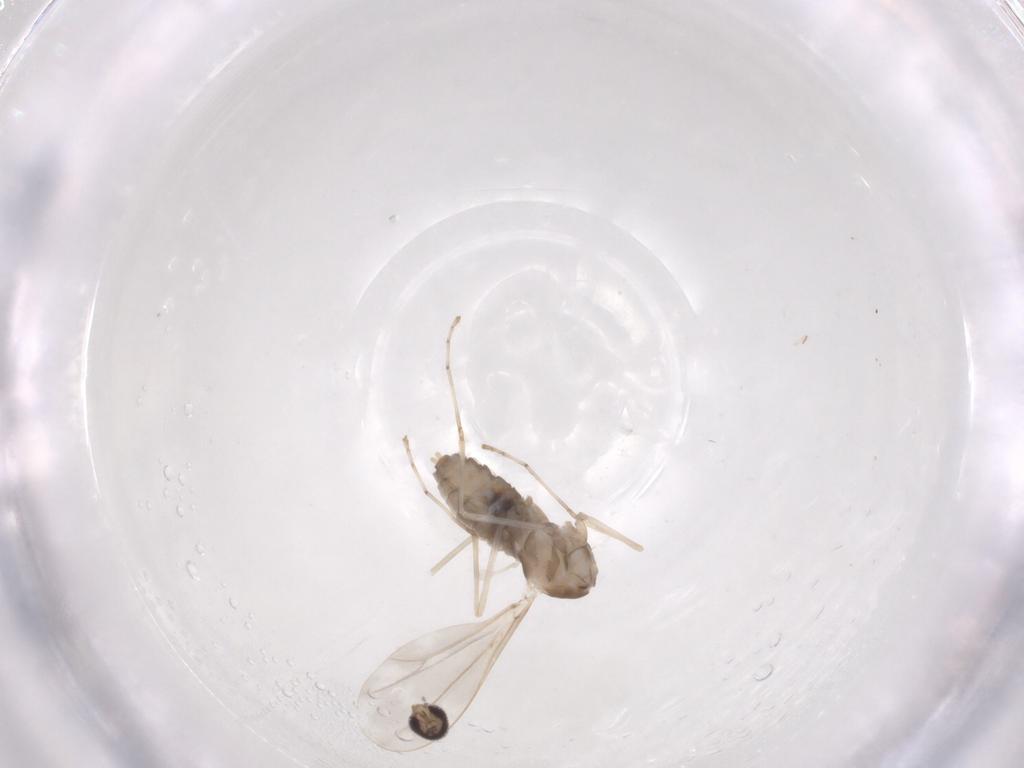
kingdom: Animalia
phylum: Arthropoda
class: Insecta
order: Diptera
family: Cecidomyiidae
